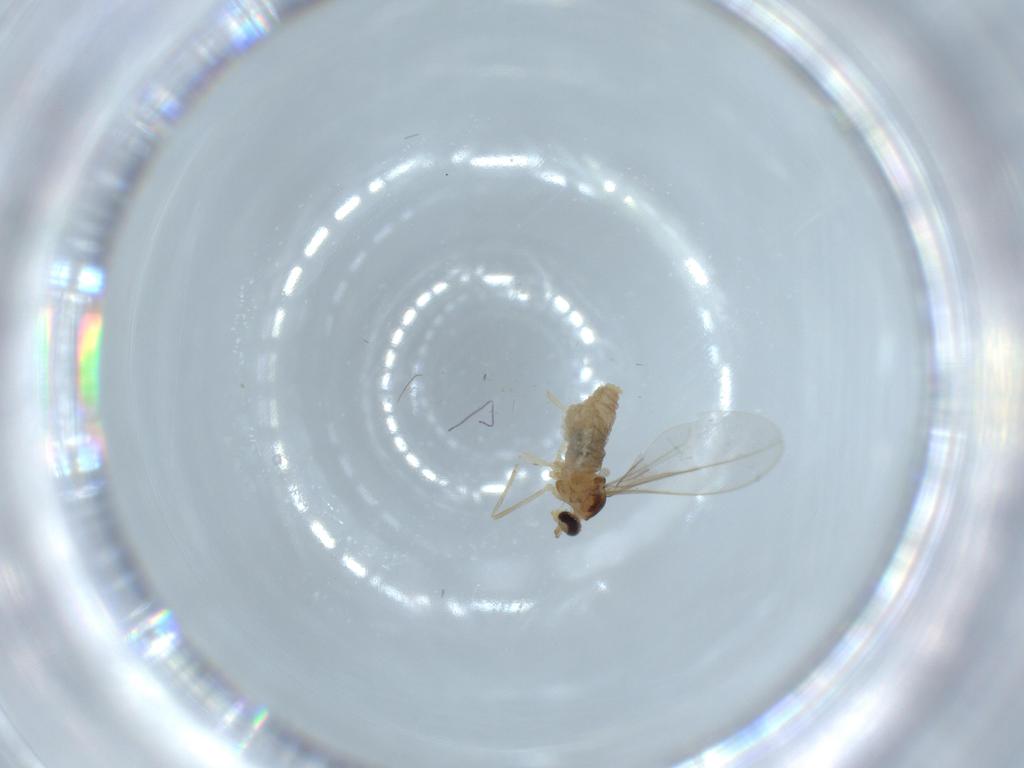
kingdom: Animalia
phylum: Arthropoda
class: Insecta
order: Diptera
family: Cecidomyiidae
